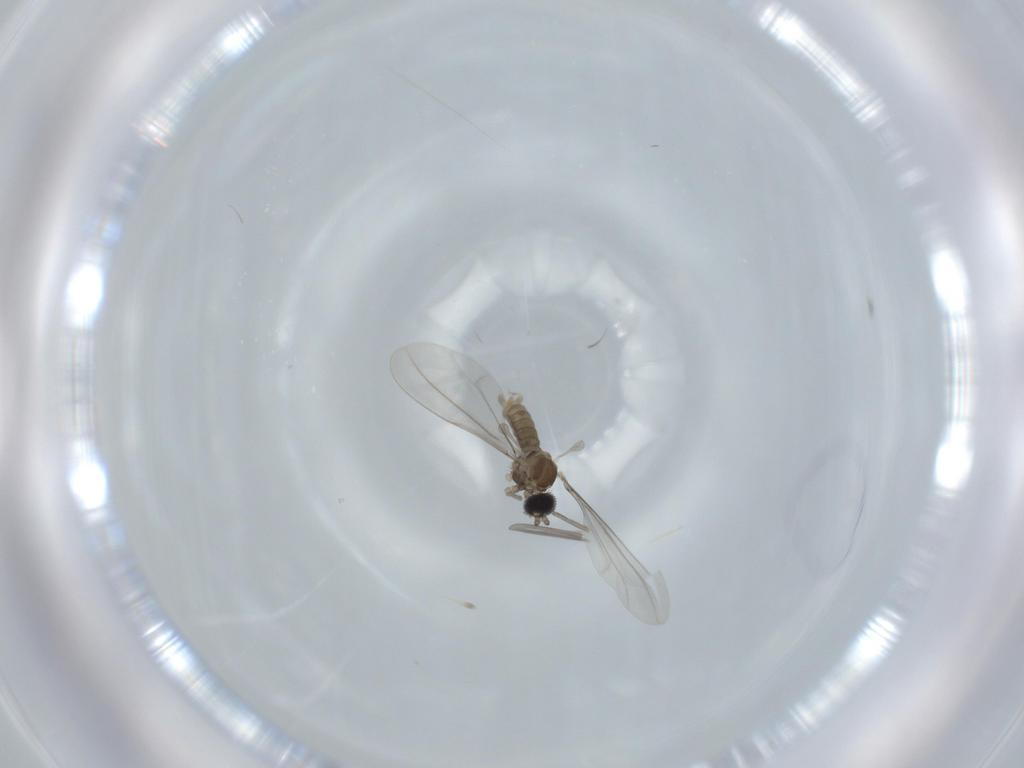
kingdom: Animalia
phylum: Arthropoda
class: Insecta
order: Diptera
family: Cecidomyiidae
